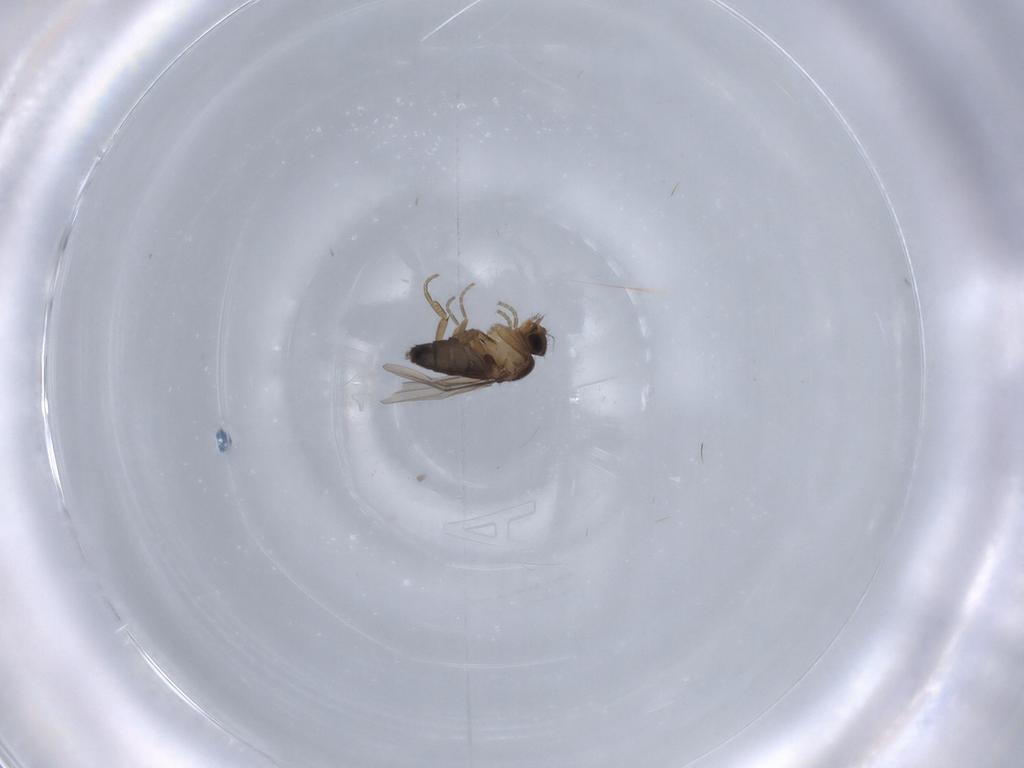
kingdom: Animalia
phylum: Arthropoda
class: Insecta
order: Diptera
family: Phoridae
